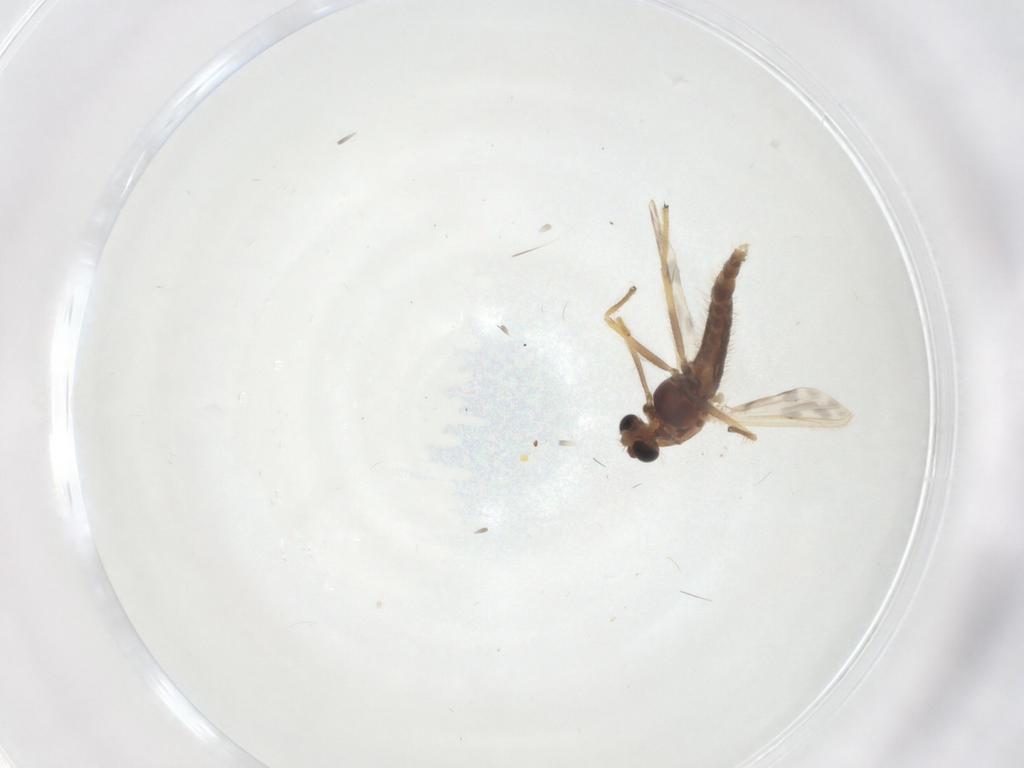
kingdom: Animalia
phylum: Arthropoda
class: Insecta
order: Diptera
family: Chironomidae
